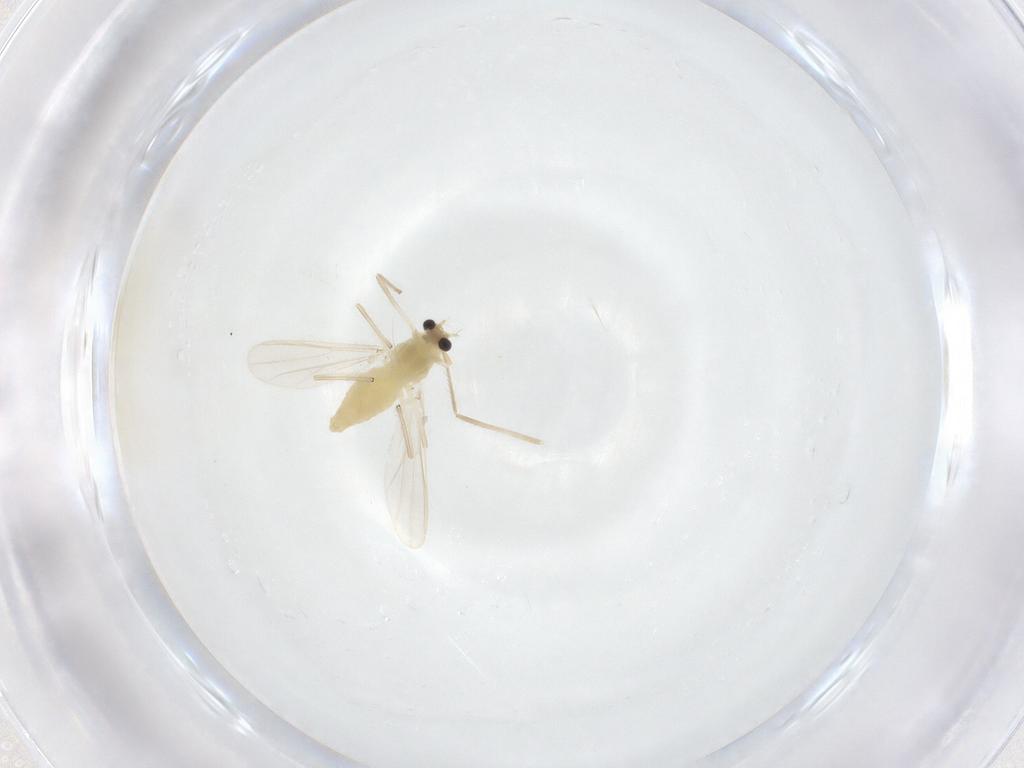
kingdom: Animalia
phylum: Arthropoda
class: Insecta
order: Diptera
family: Chironomidae
